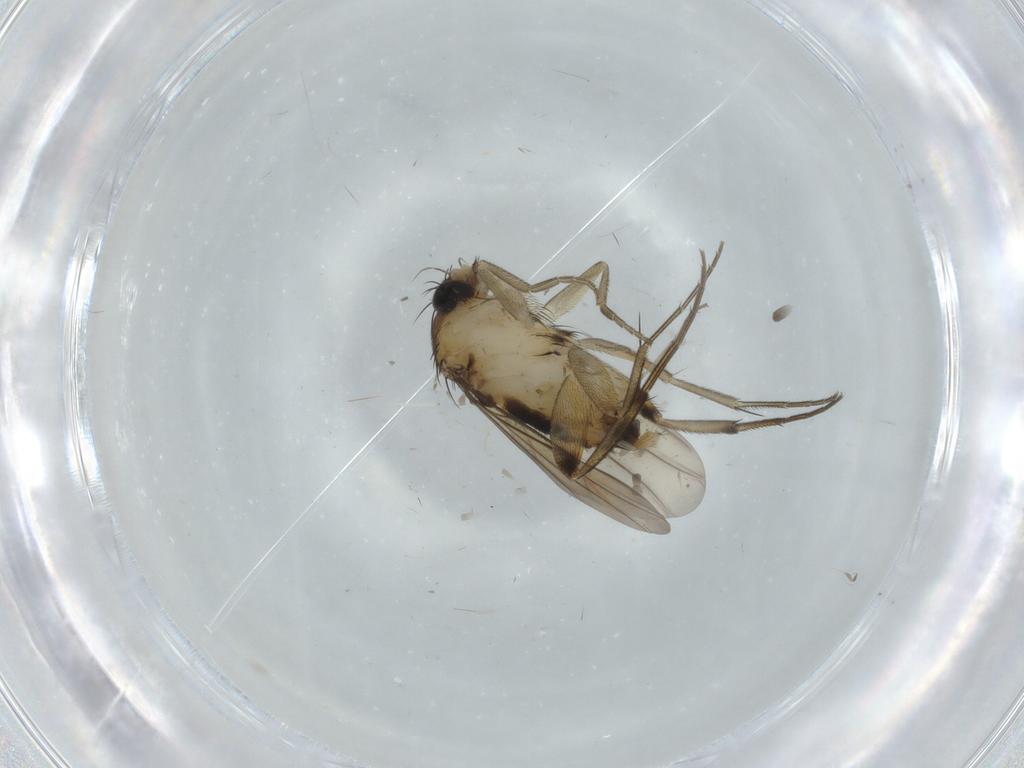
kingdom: Animalia
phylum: Arthropoda
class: Insecta
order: Diptera
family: Phoridae
